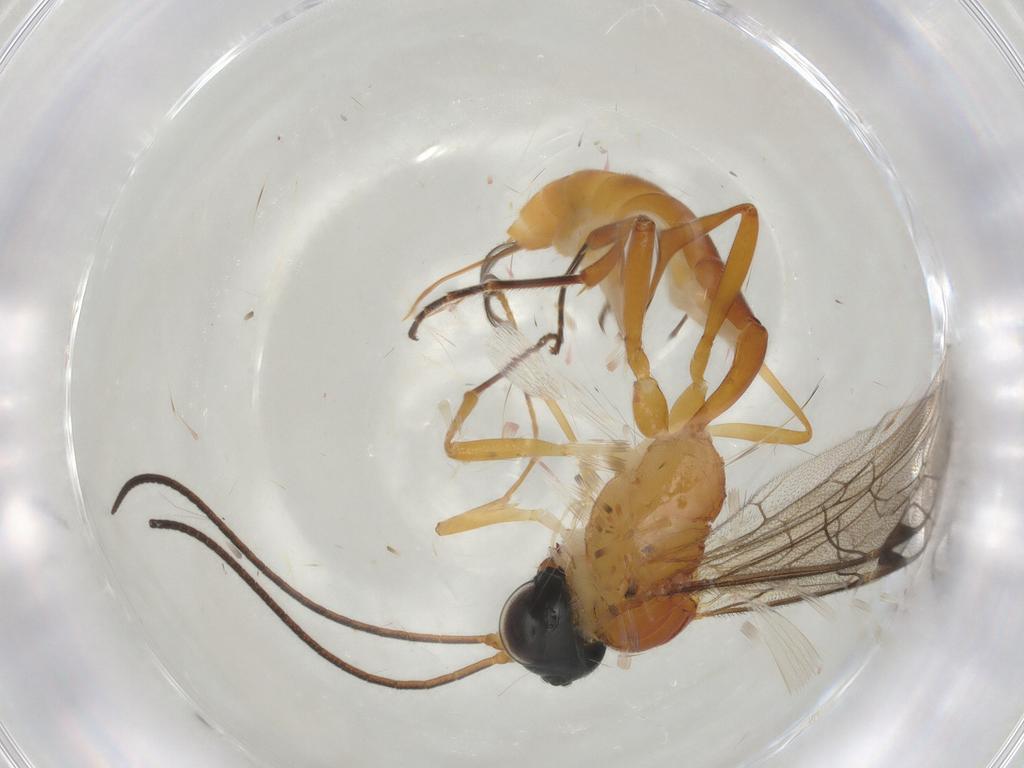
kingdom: Animalia
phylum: Arthropoda
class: Insecta
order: Hymenoptera
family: Ichneumonidae
